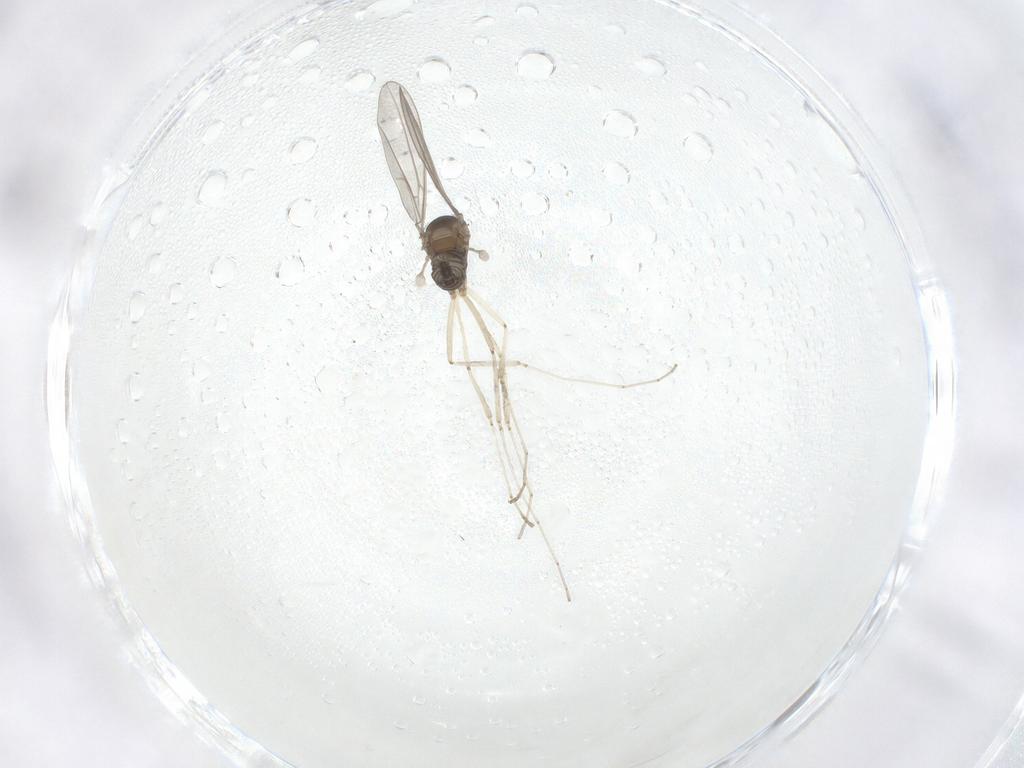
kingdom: Animalia
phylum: Arthropoda
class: Insecta
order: Diptera
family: Cecidomyiidae
